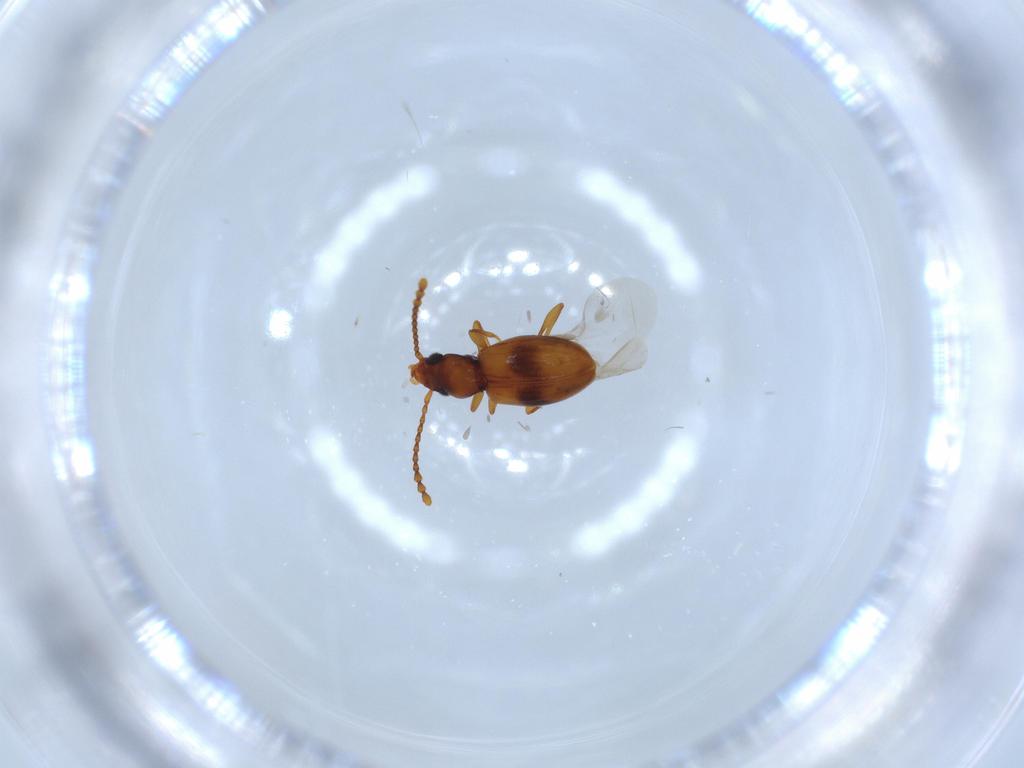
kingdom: Animalia
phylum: Arthropoda
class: Insecta
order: Coleoptera
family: Laemophloeidae
